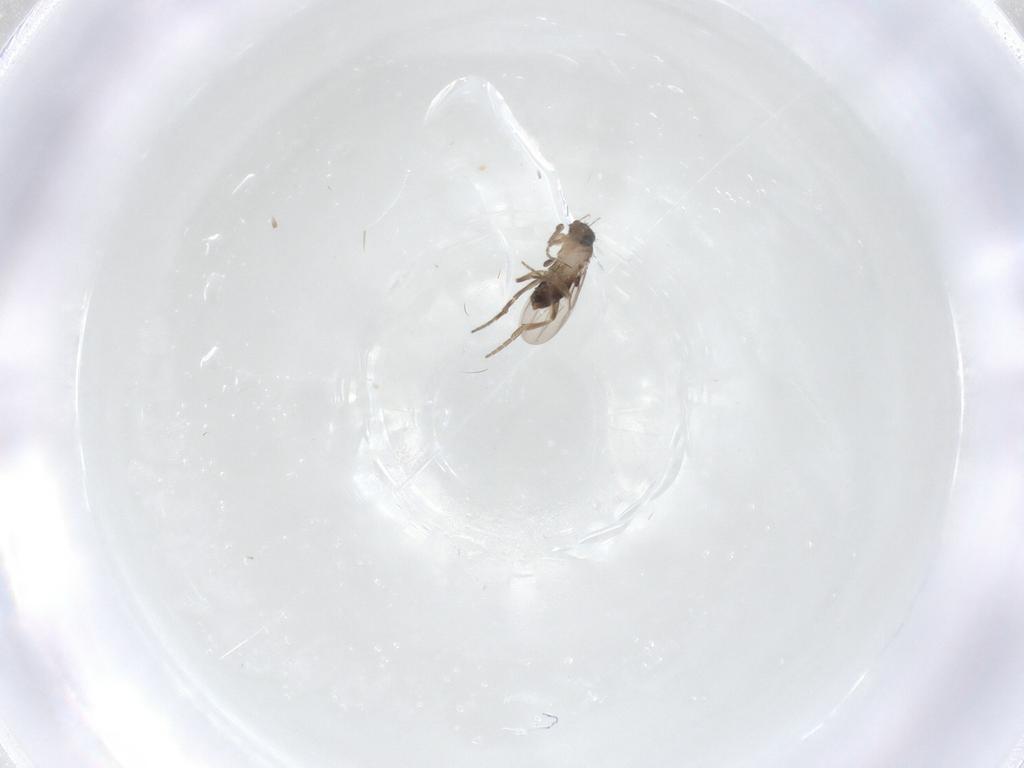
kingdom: Animalia
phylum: Arthropoda
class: Insecta
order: Diptera
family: Phoridae
